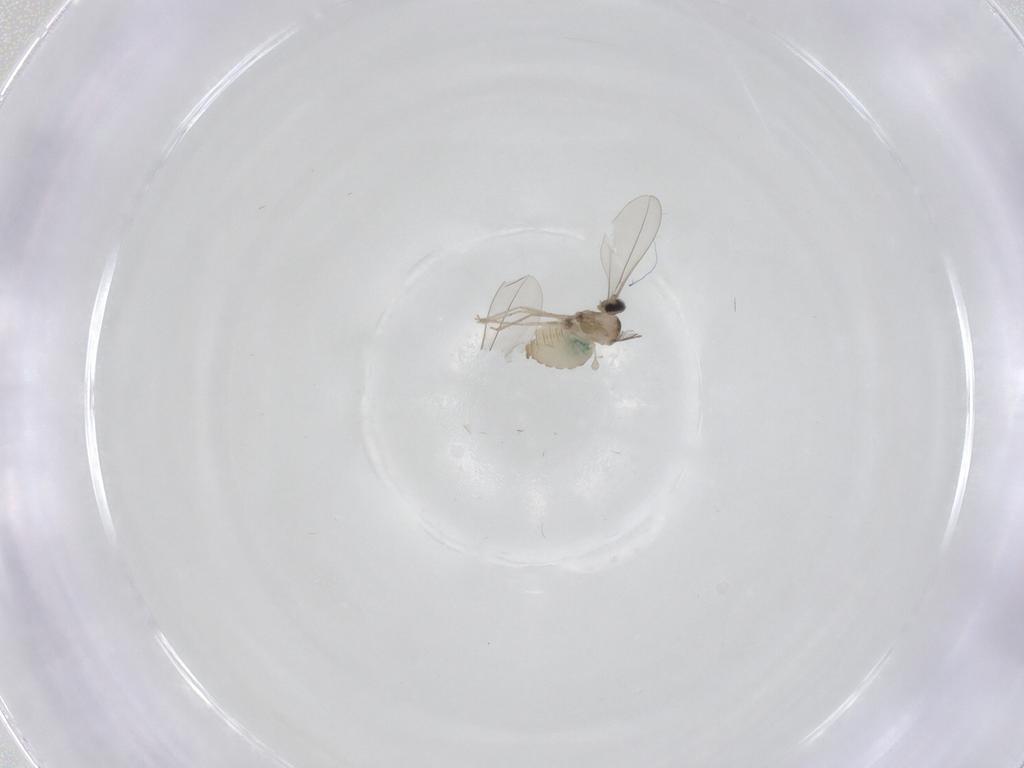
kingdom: Animalia
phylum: Arthropoda
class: Insecta
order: Diptera
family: Cecidomyiidae
